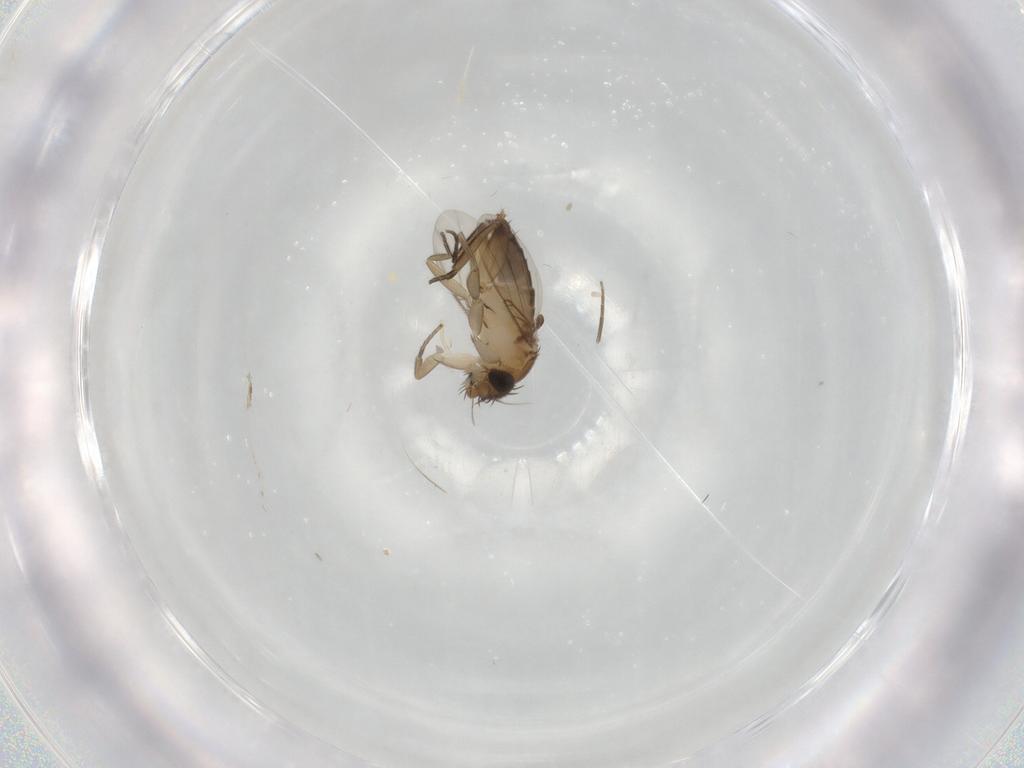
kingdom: Animalia
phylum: Arthropoda
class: Insecta
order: Diptera
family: Phoridae
